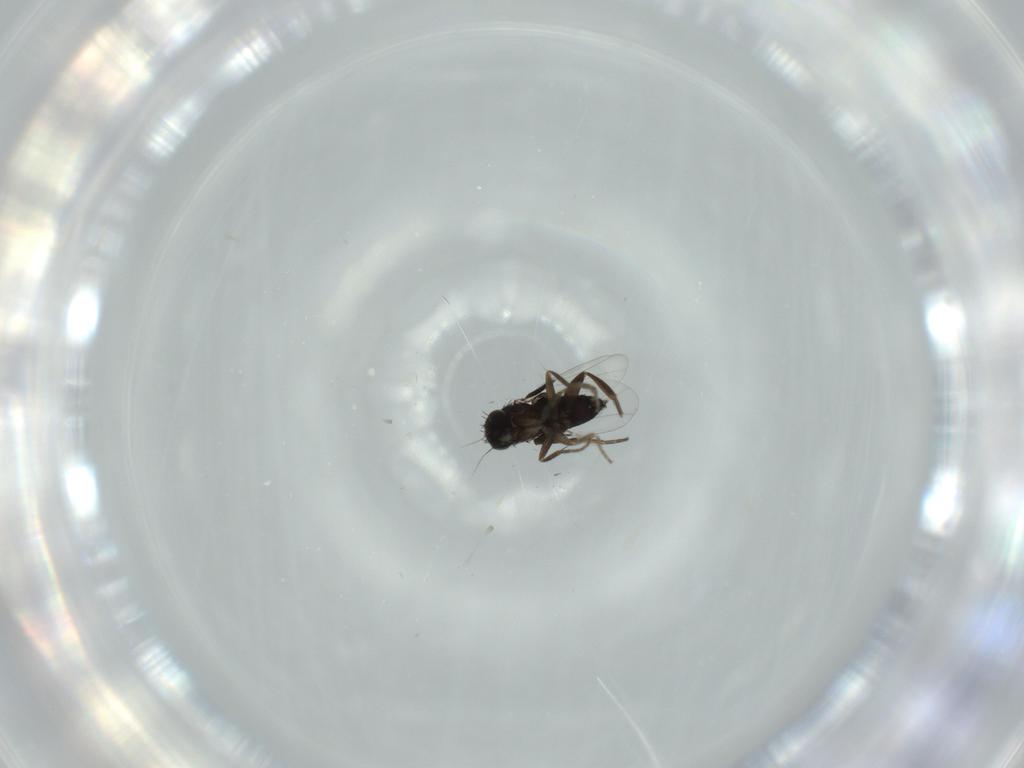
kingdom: Animalia
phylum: Arthropoda
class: Insecta
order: Diptera
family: Phoridae
